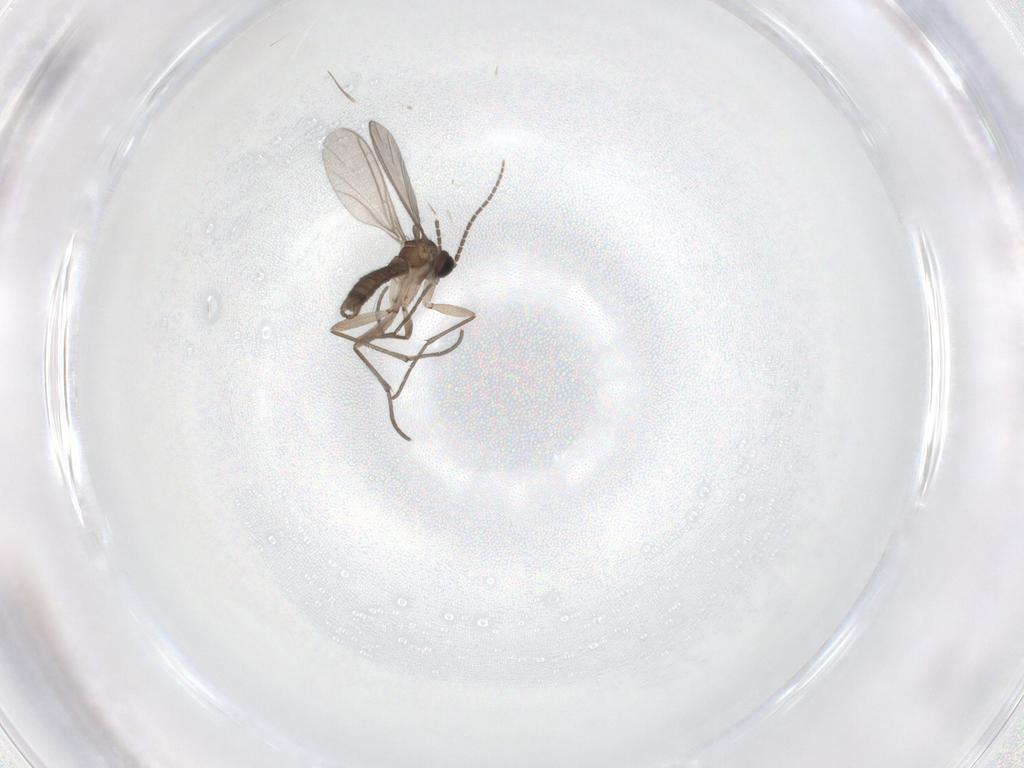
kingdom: Animalia
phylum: Arthropoda
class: Insecta
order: Diptera
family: Sciaridae
